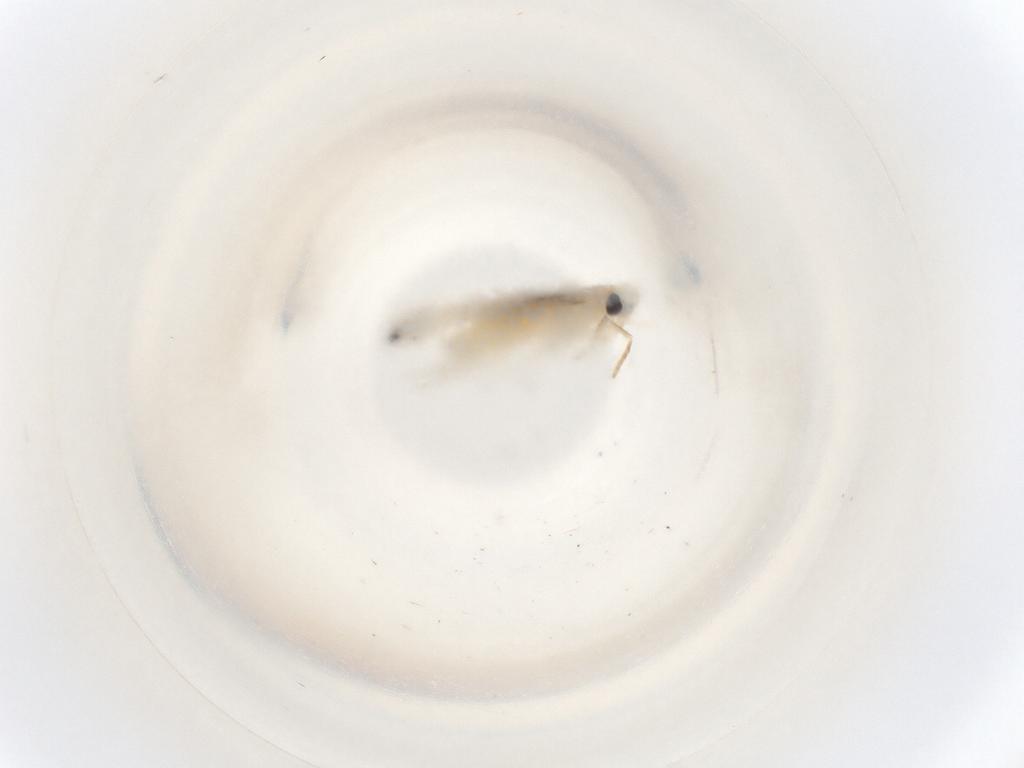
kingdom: Animalia
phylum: Arthropoda
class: Insecta
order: Lepidoptera
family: Gracillariidae
